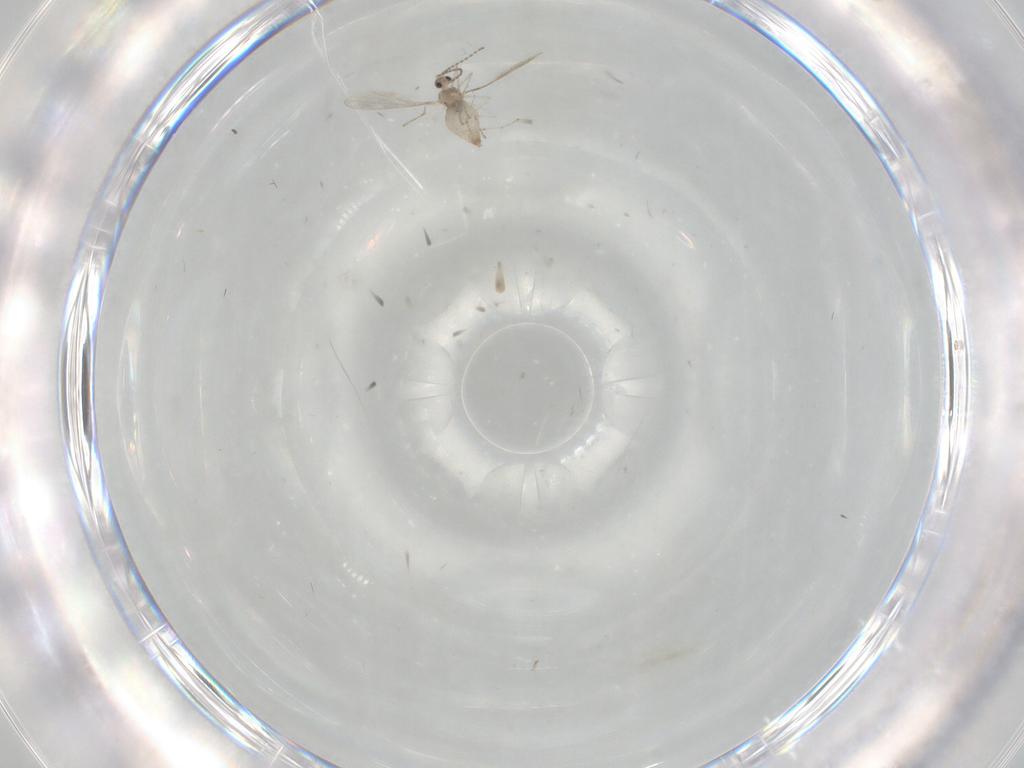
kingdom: Animalia
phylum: Arthropoda
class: Insecta
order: Diptera
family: Cecidomyiidae
